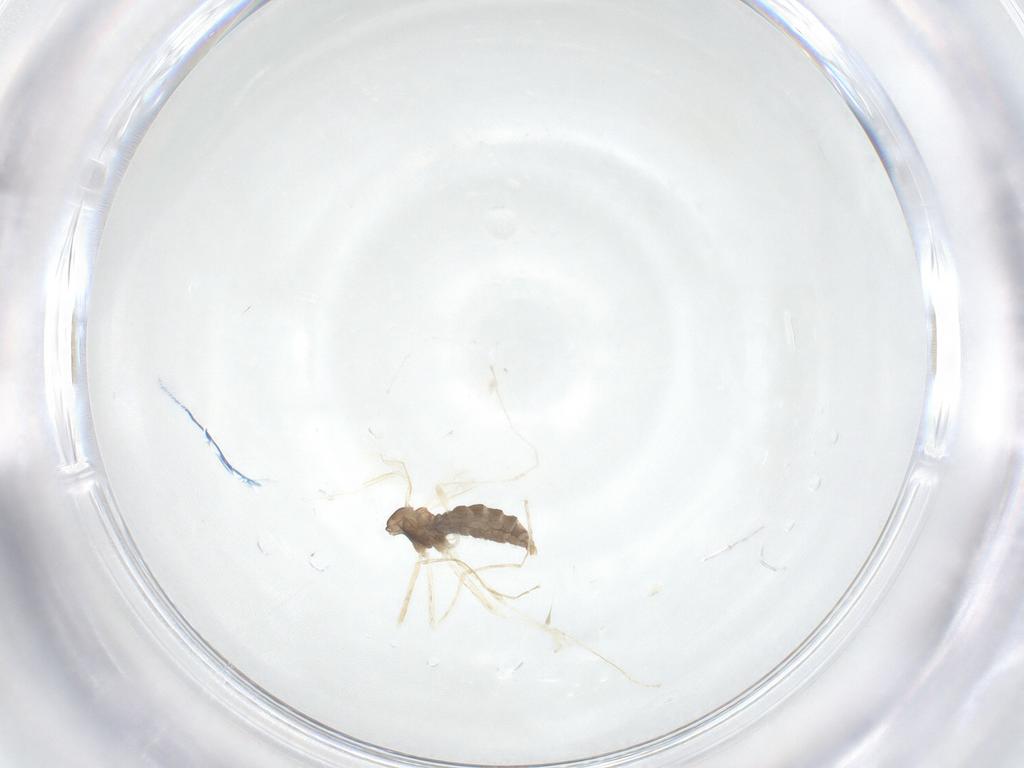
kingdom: Animalia
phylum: Arthropoda
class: Insecta
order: Diptera
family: Cecidomyiidae
